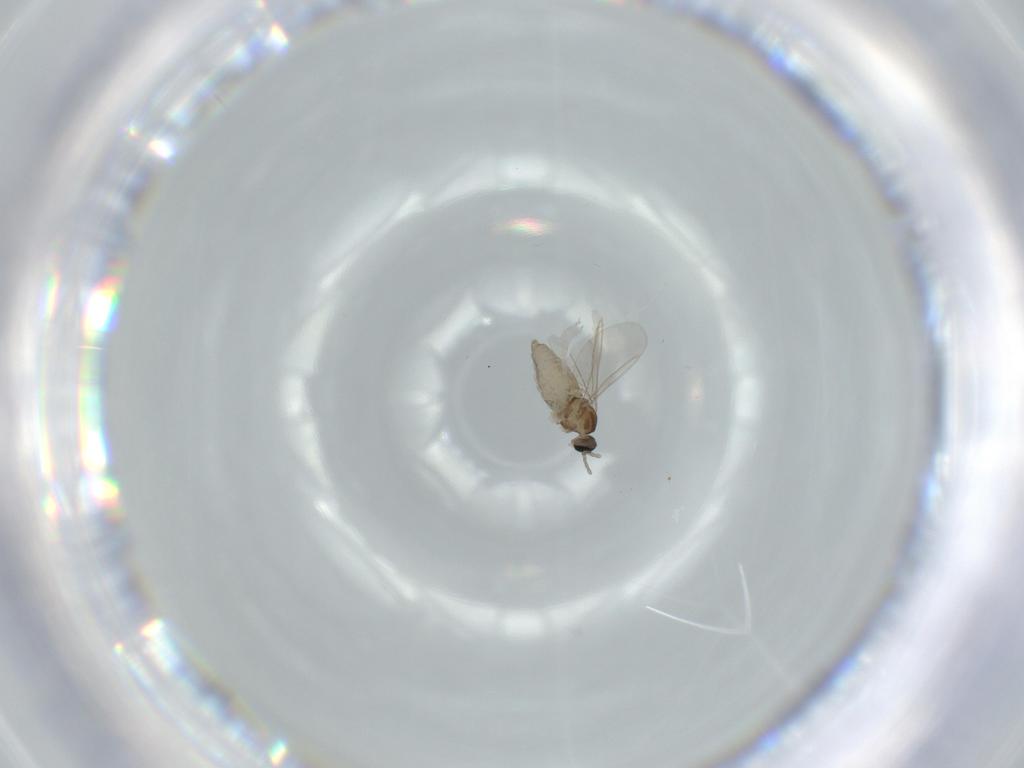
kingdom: Animalia
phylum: Arthropoda
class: Insecta
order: Diptera
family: Cecidomyiidae
